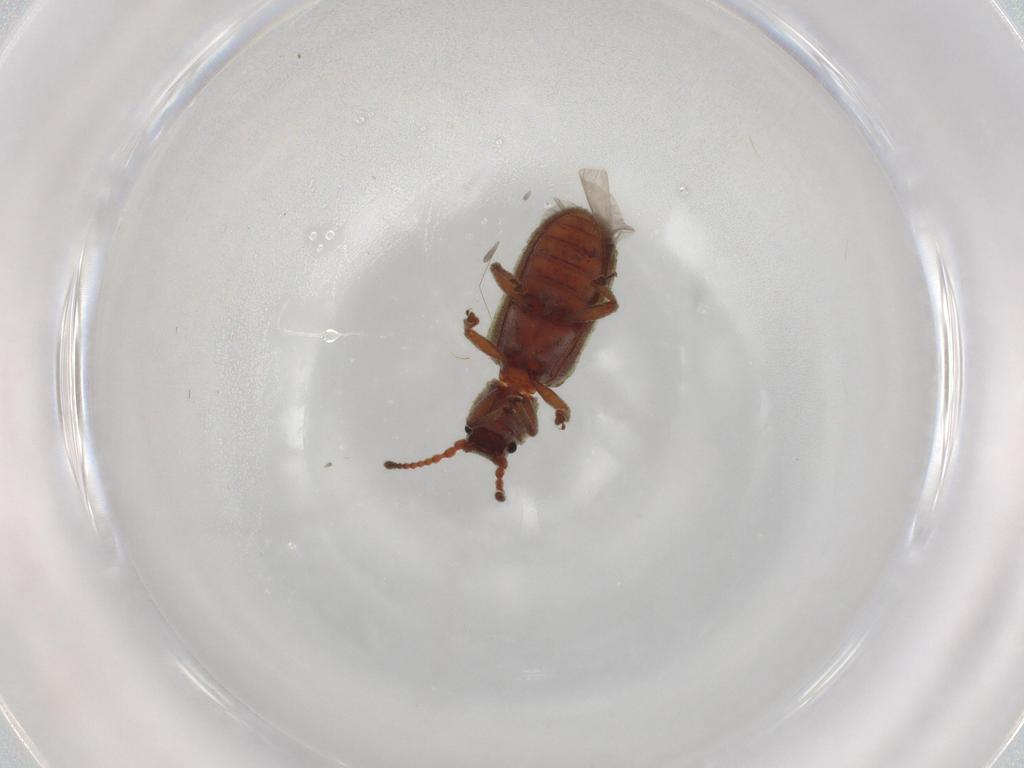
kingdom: Animalia
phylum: Arthropoda
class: Insecta
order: Coleoptera
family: Zopheridae
